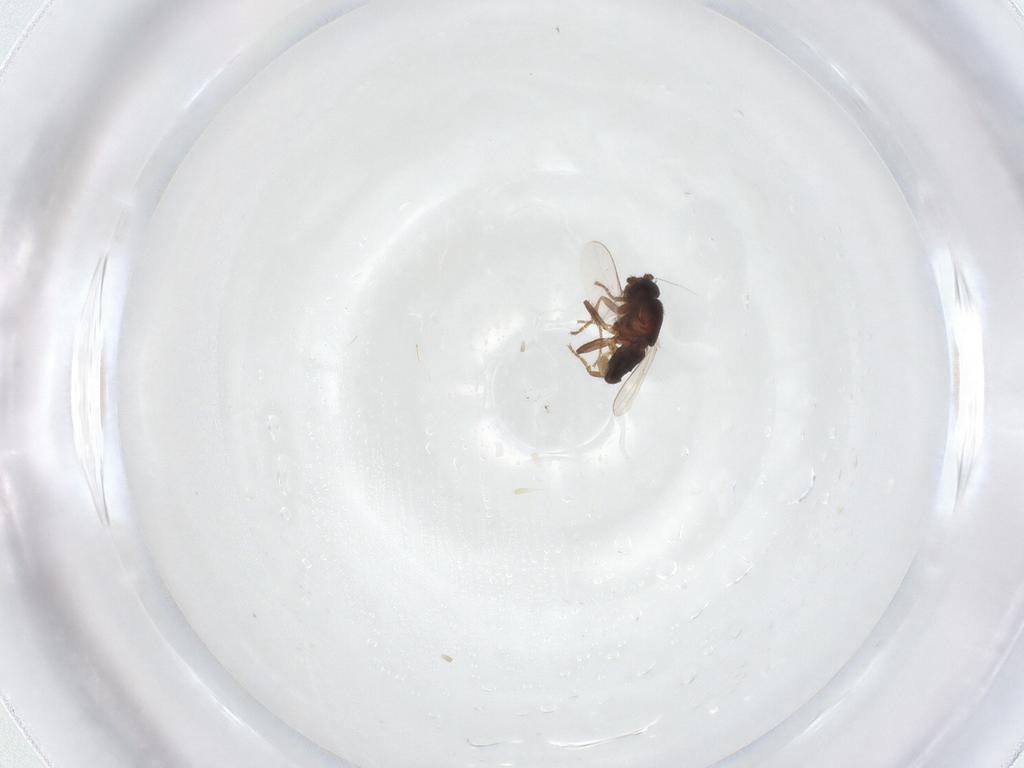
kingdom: Animalia
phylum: Arthropoda
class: Insecta
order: Diptera
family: Sphaeroceridae
